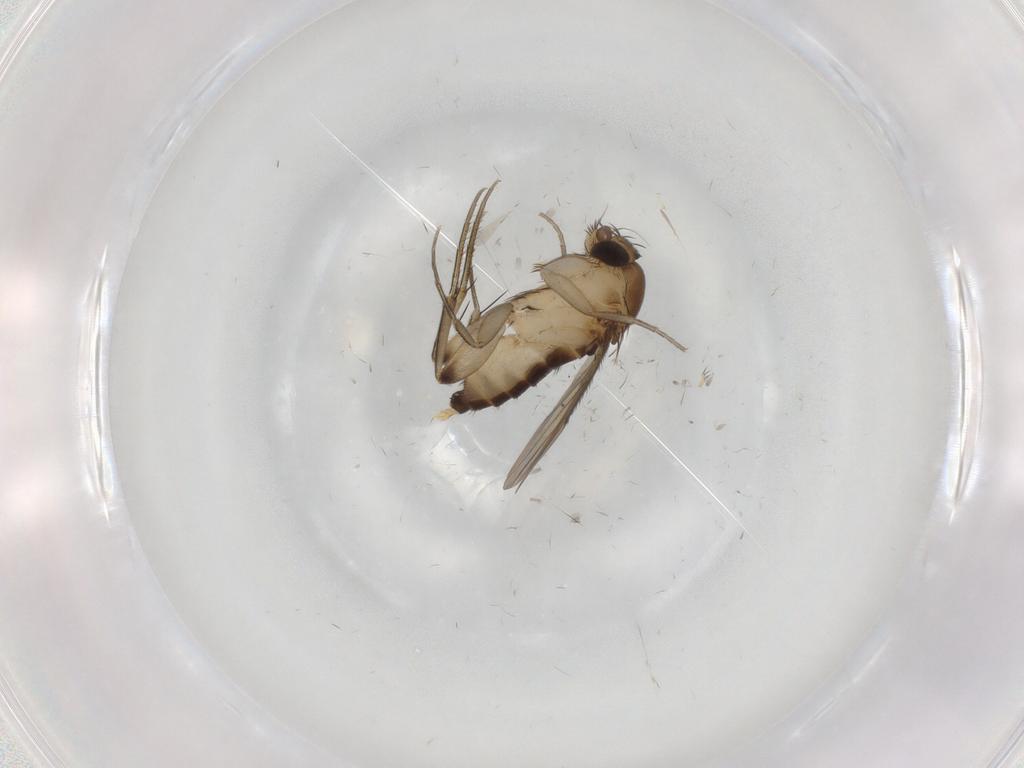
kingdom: Animalia
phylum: Arthropoda
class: Insecta
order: Diptera
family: Phoridae
